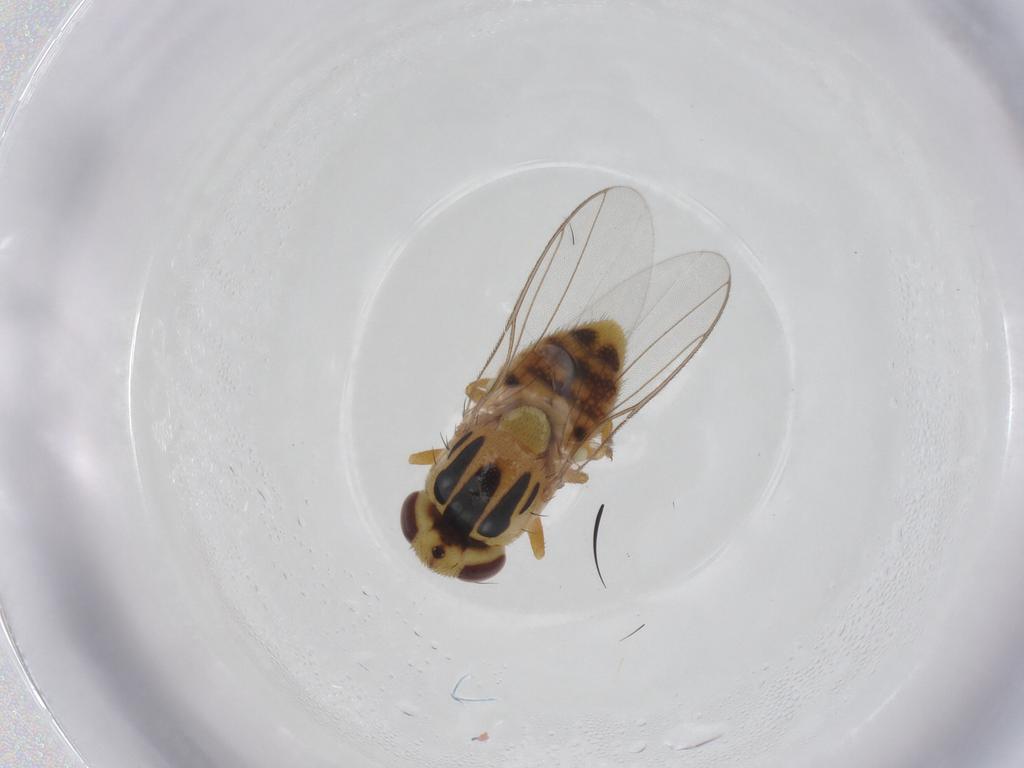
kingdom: Animalia
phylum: Arthropoda
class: Insecta
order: Diptera
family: Chloropidae
